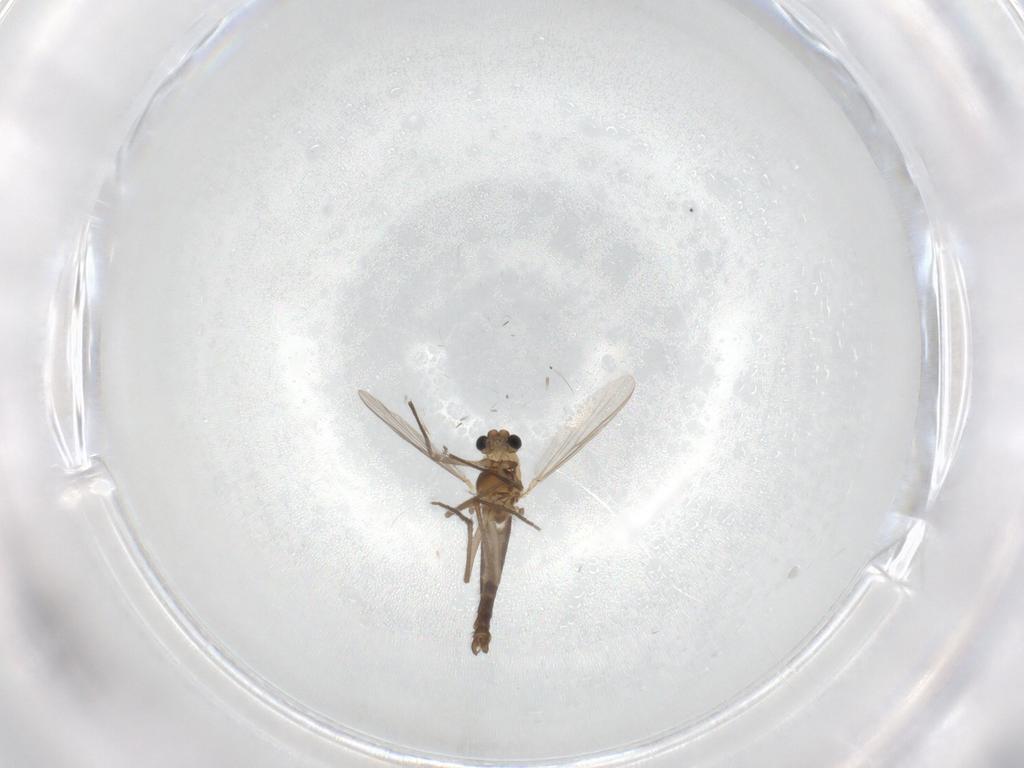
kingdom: Animalia
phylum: Arthropoda
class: Insecta
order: Diptera
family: Chironomidae
